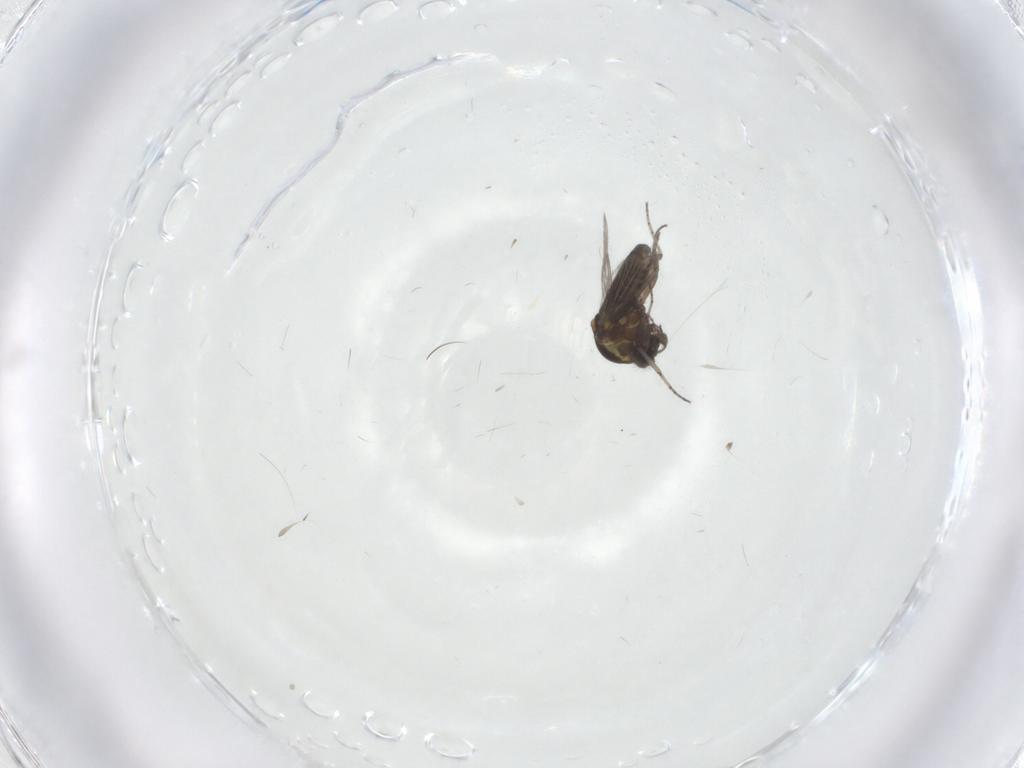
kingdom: Animalia
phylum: Arthropoda
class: Insecta
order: Diptera
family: Ceratopogonidae
